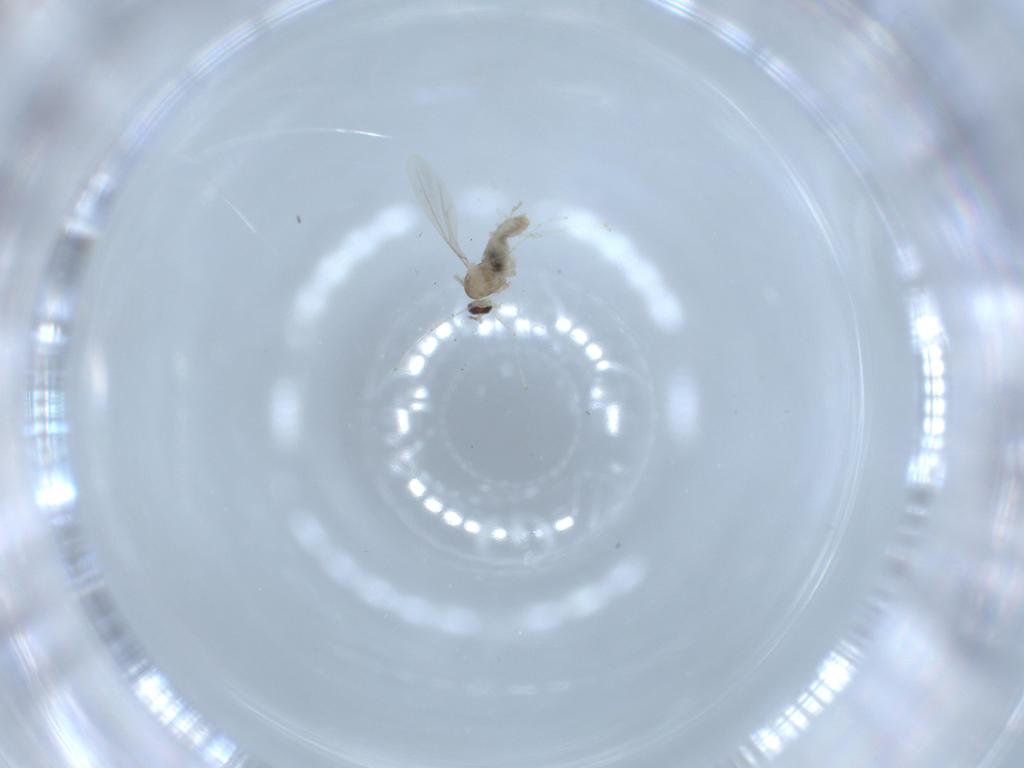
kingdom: Animalia
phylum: Arthropoda
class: Insecta
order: Diptera
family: Cecidomyiidae
